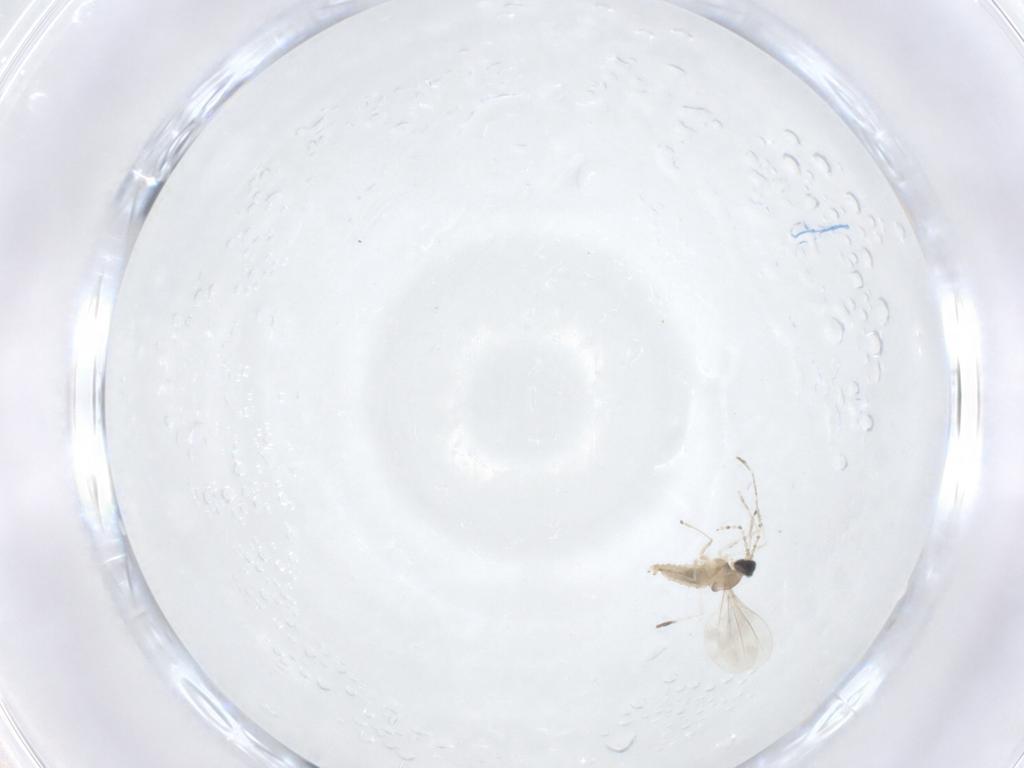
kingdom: Animalia
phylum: Arthropoda
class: Insecta
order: Diptera
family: Cecidomyiidae
